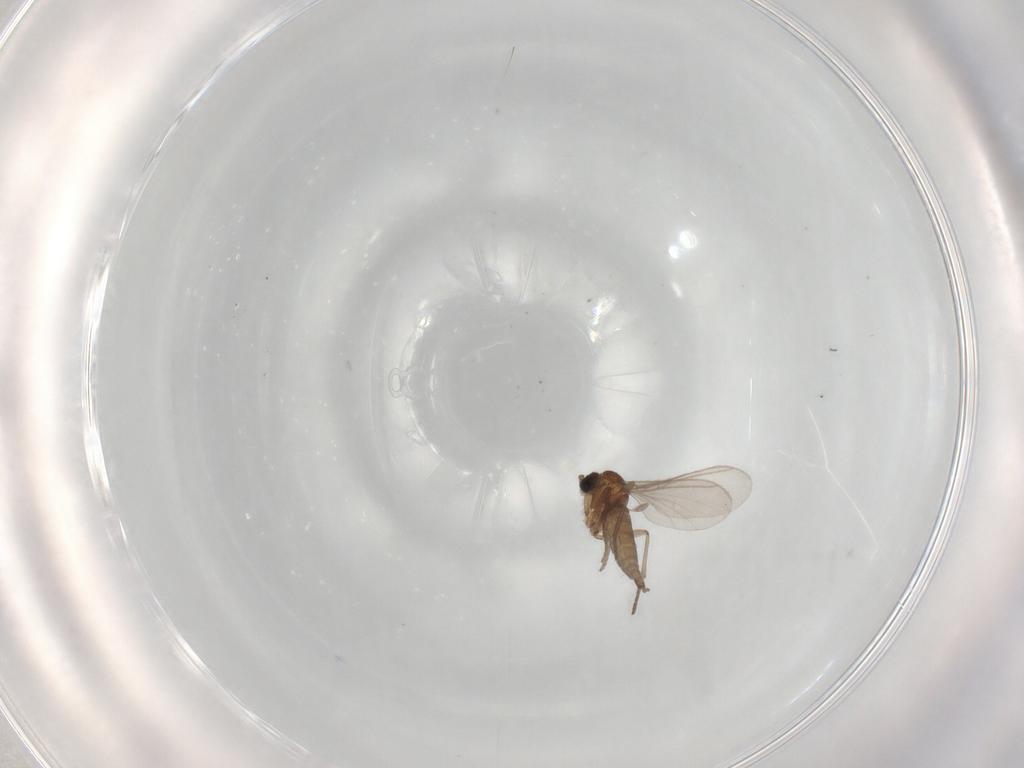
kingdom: Animalia
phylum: Arthropoda
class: Insecta
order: Diptera
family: Cecidomyiidae
